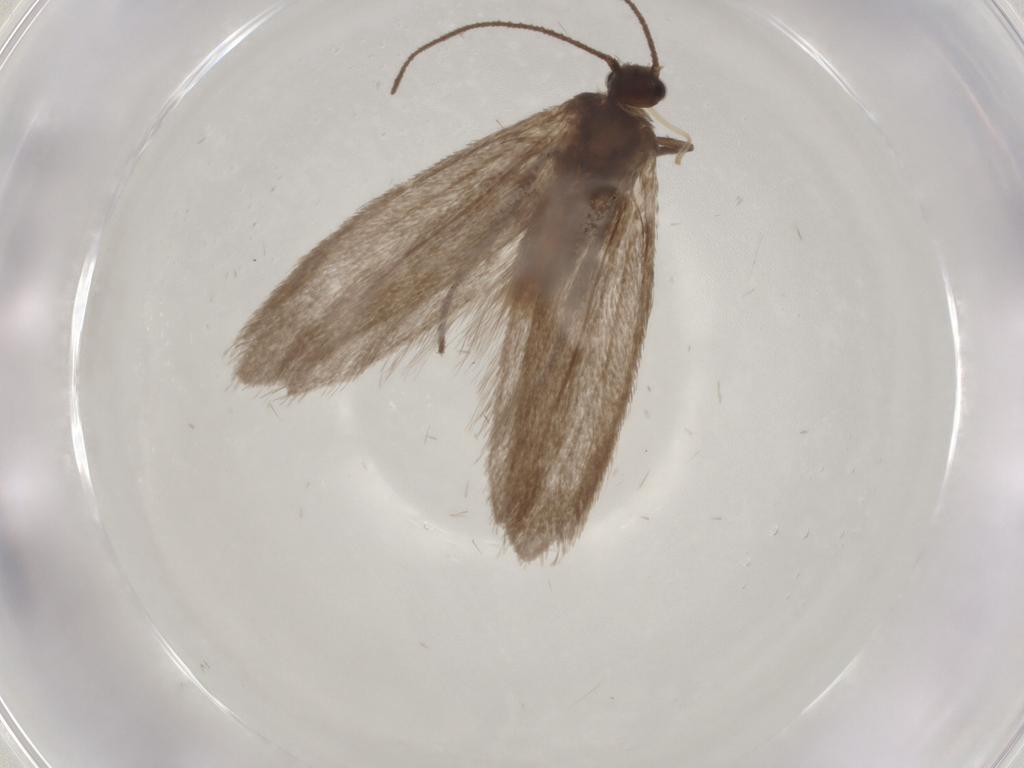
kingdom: Animalia
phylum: Arthropoda
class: Insecta
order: Lepidoptera
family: Limacodidae
